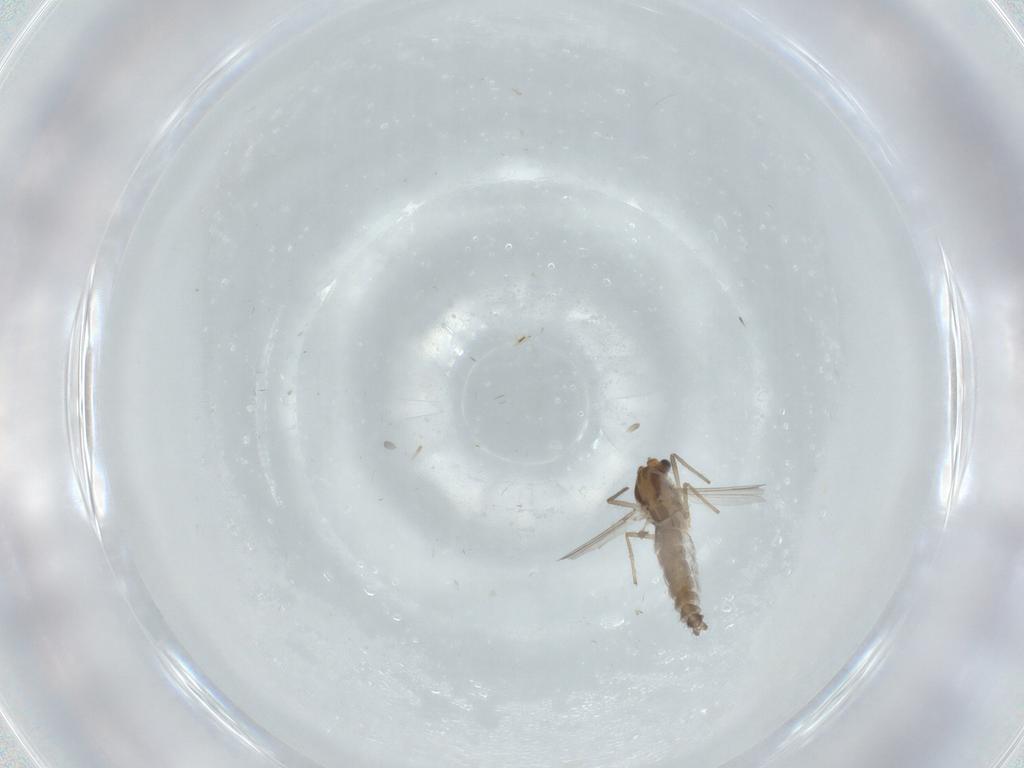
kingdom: Animalia
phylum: Arthropoda
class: Insecta
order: Diptera
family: Chironomidae
